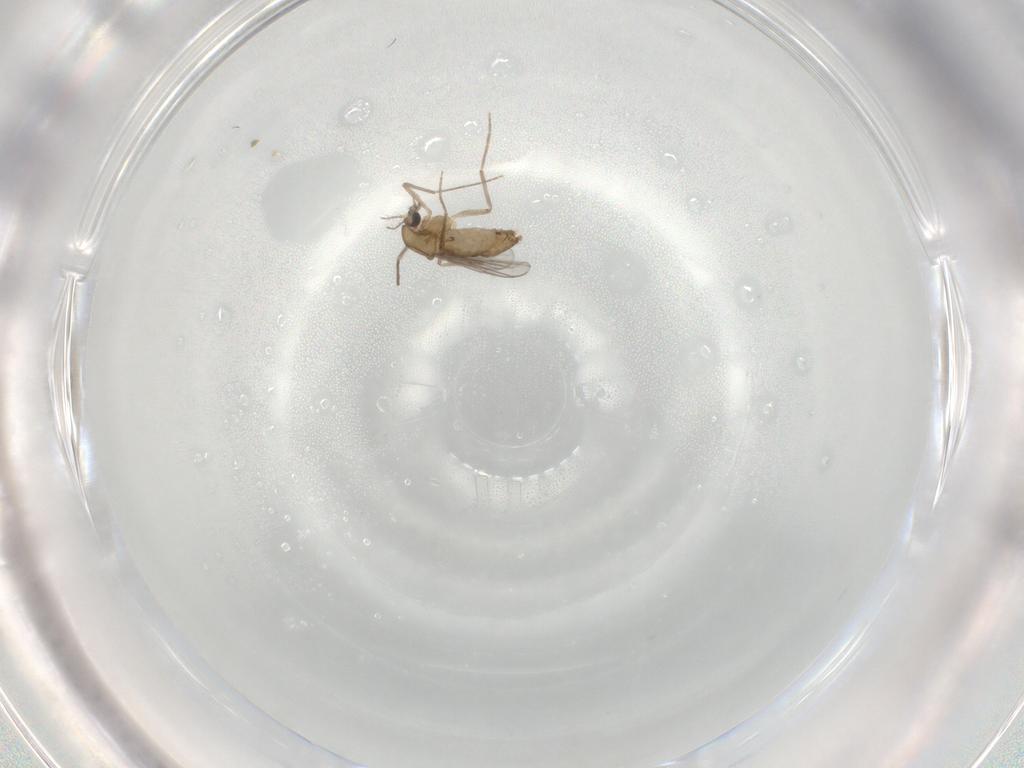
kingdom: Animalia
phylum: Arthropoda
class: Insecta
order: Diptera
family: Chironomidae
